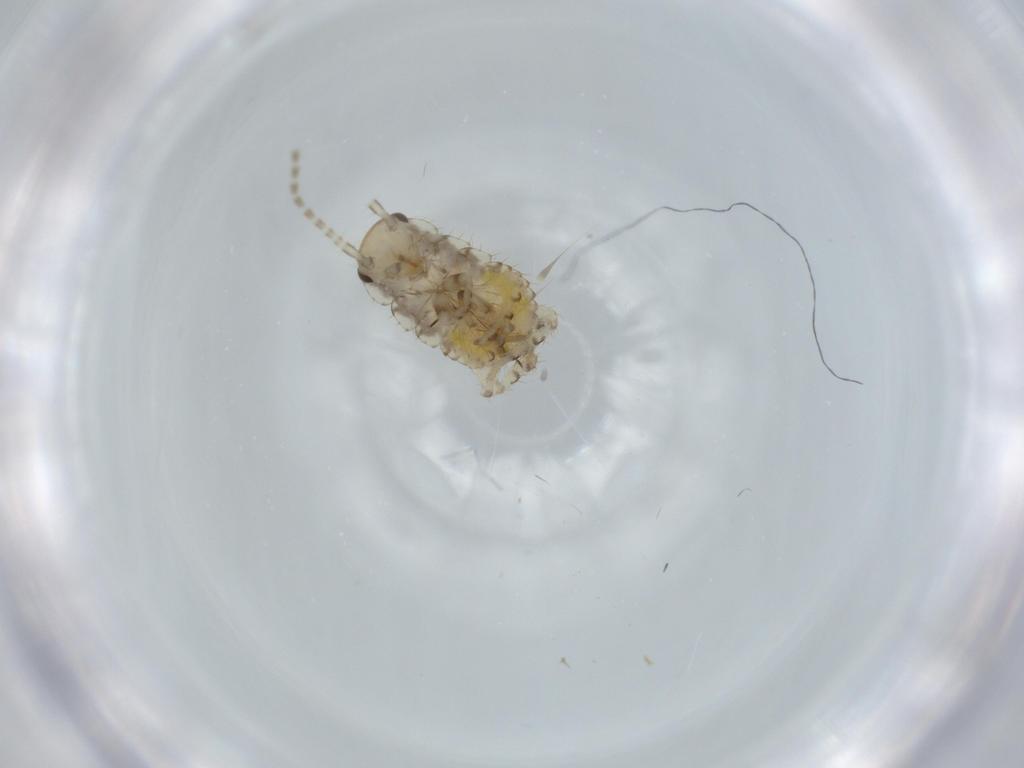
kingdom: Animalia
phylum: Arthropoda
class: Insecta
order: Blattodea
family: Ectobiidae
